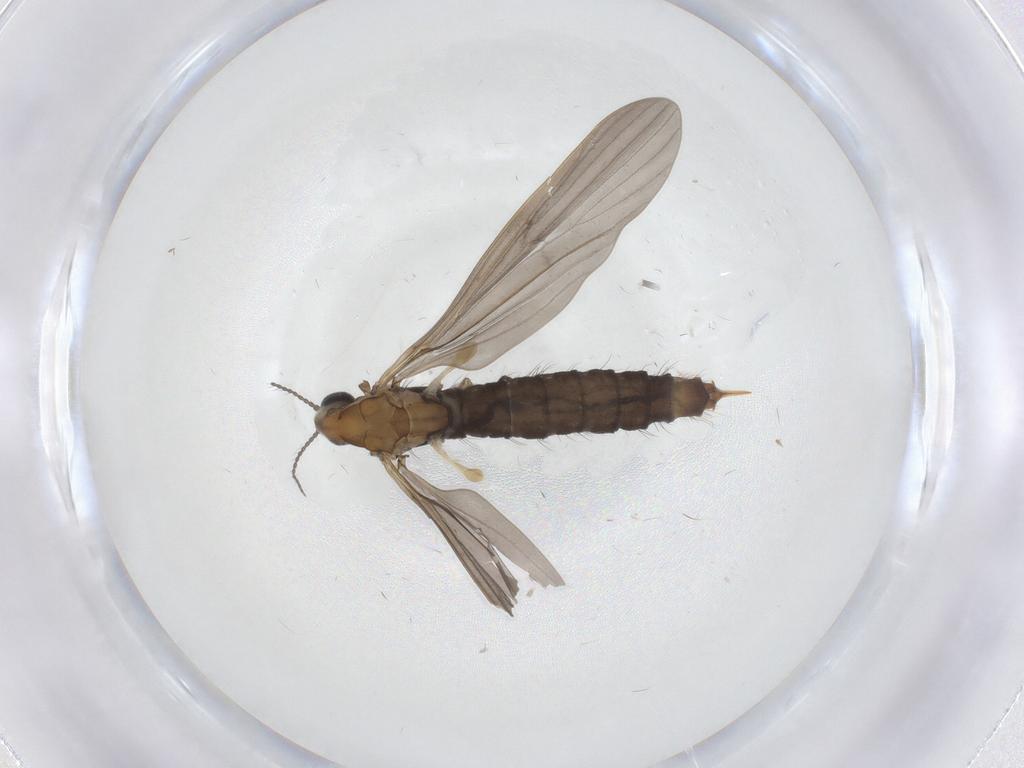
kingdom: Animalia
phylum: Arthropoda
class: Insecta
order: Diptera
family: Limoniidae
